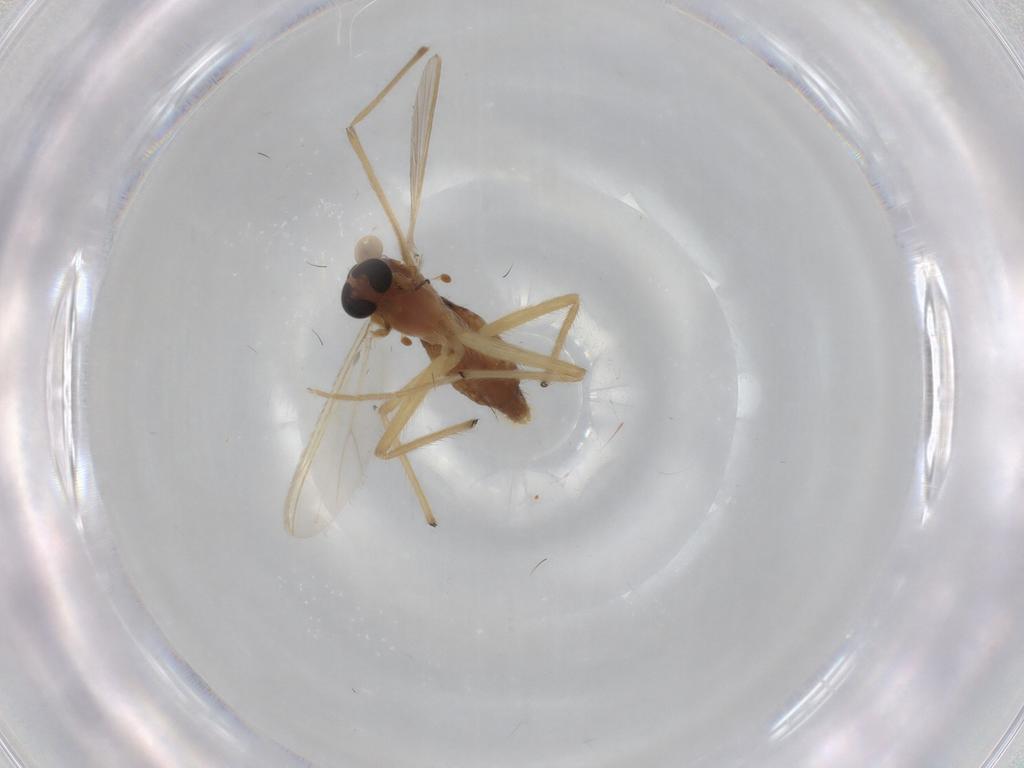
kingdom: Animalia
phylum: Arthropoda
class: Insecta
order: Diptera
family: Chironomidae
